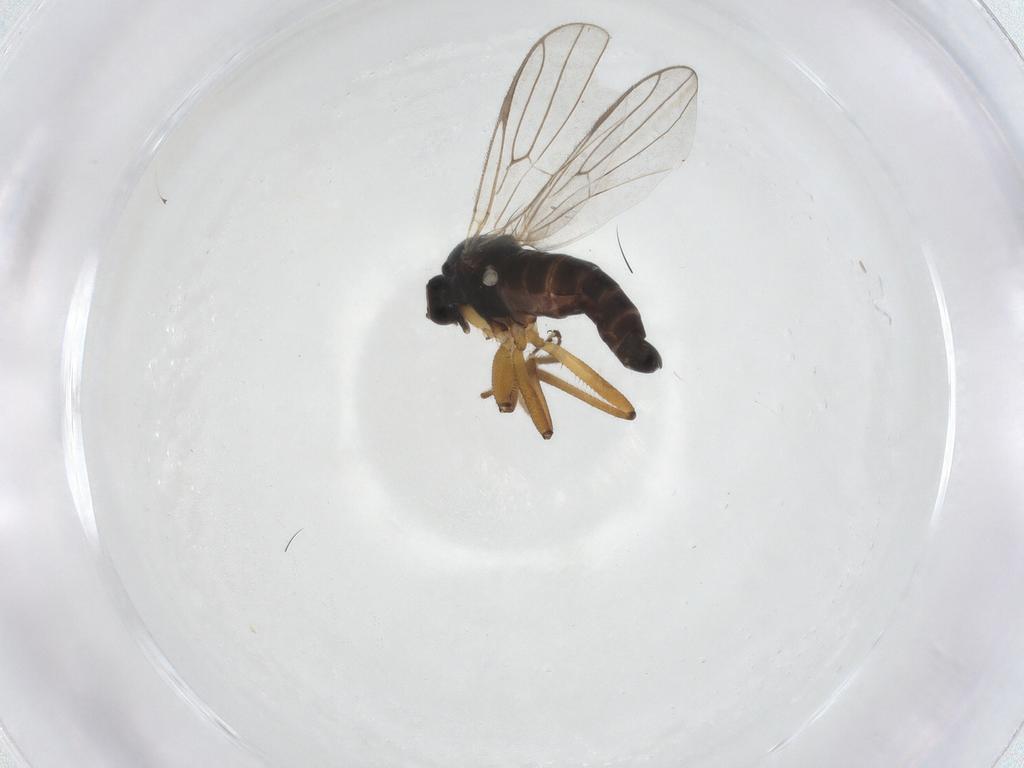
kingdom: Animalia
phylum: Arthropoda
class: Insecta
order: Diptera
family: Hybotidae
